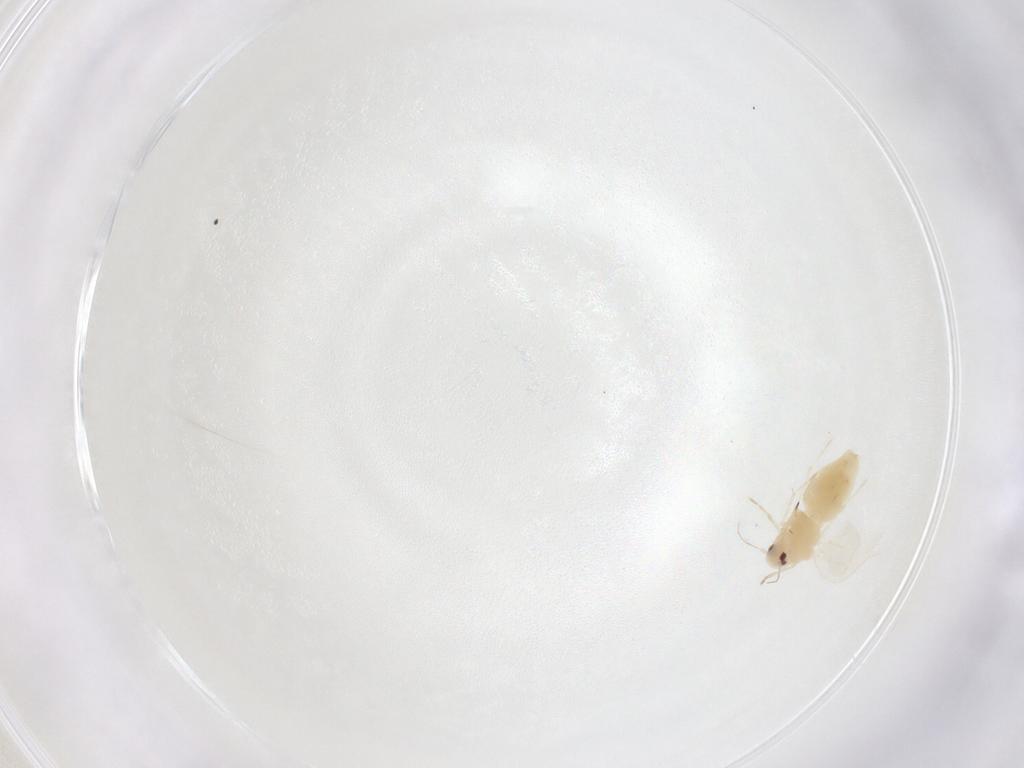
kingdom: Animalia
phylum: Arthropoda
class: Insecta
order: Hemiptera
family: Aleyrodidae
